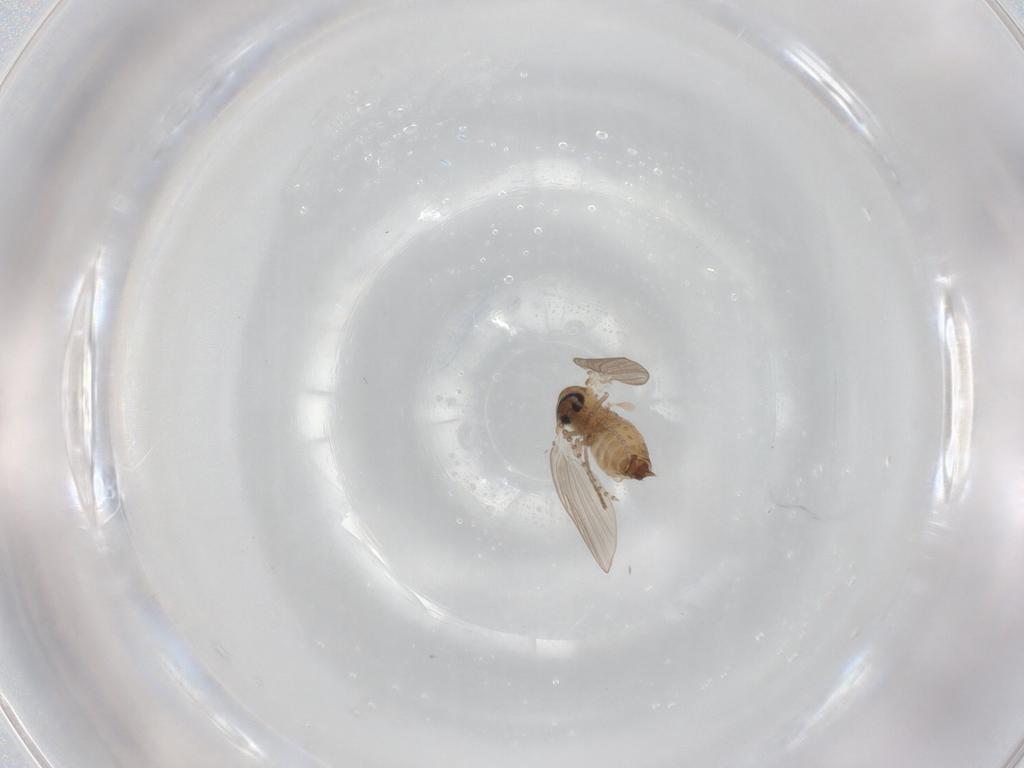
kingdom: Animalia
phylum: Arthropoda
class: Insecta
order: Diptera
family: Psychodidae
